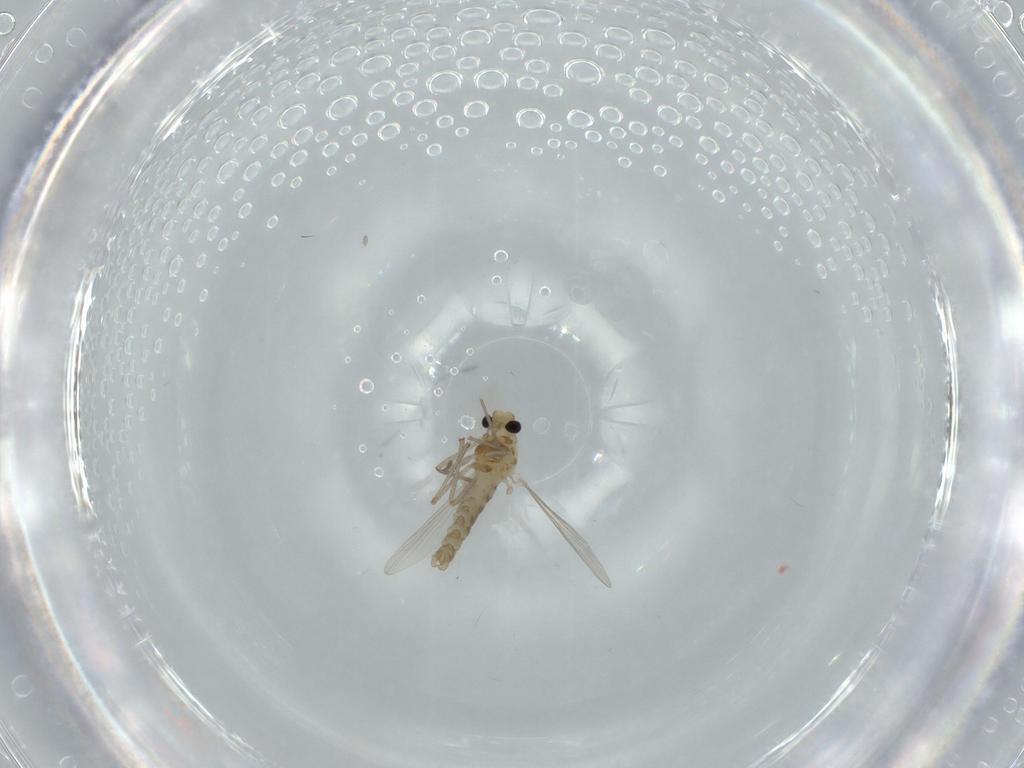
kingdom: Animalia
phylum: Arthropoda
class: Insecta
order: Diptera
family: Chironomidae
